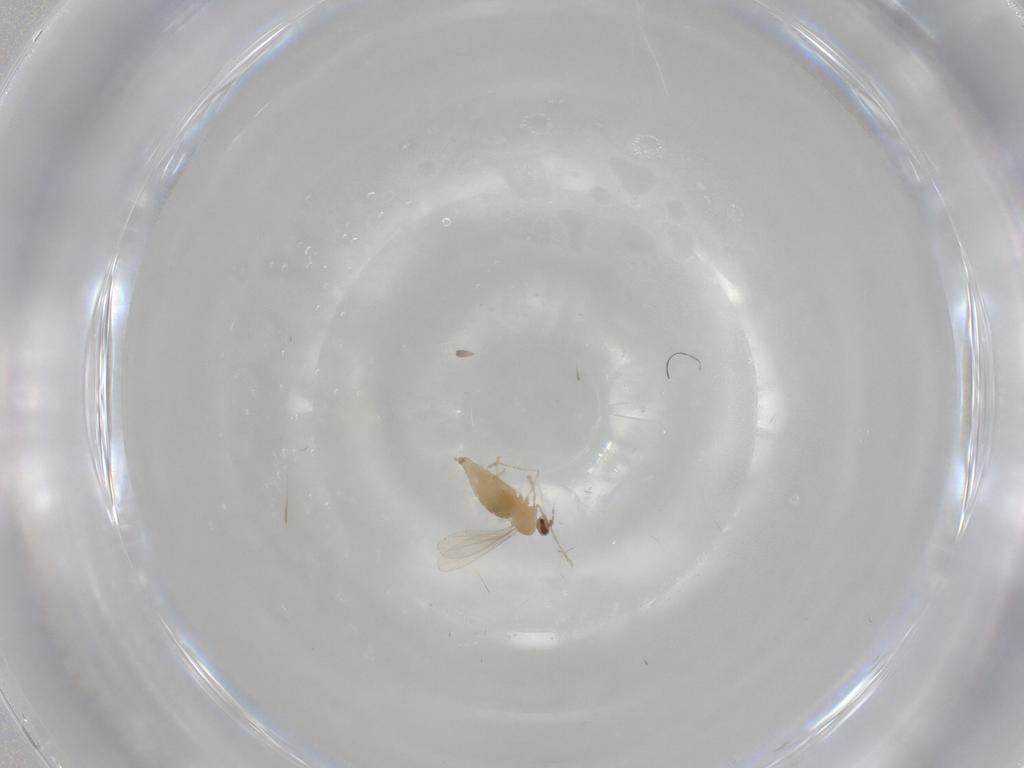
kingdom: Animalia
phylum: Arthropoda
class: Insecta
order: Diptera
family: Cecidomyiidae
